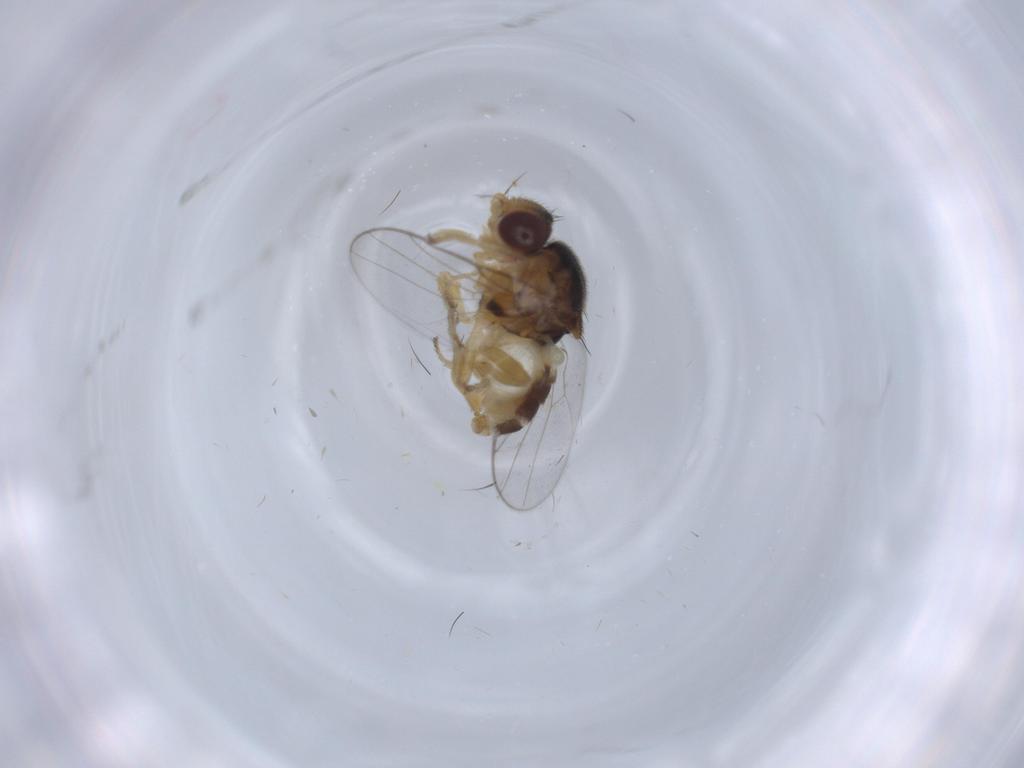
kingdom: Animalia
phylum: Arthropoda
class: Insecta
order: Diptera
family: Chloropidae
